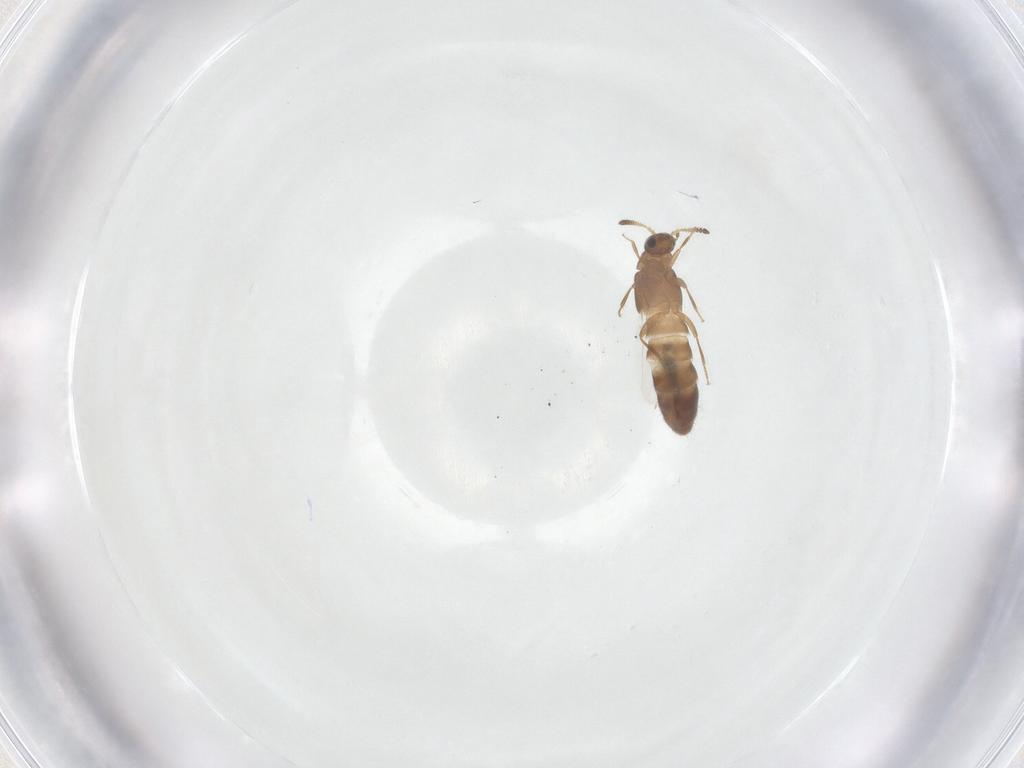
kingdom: Animalia
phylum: Arthropoda
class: Insecta
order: Coleoptera
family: Staphylinidae
